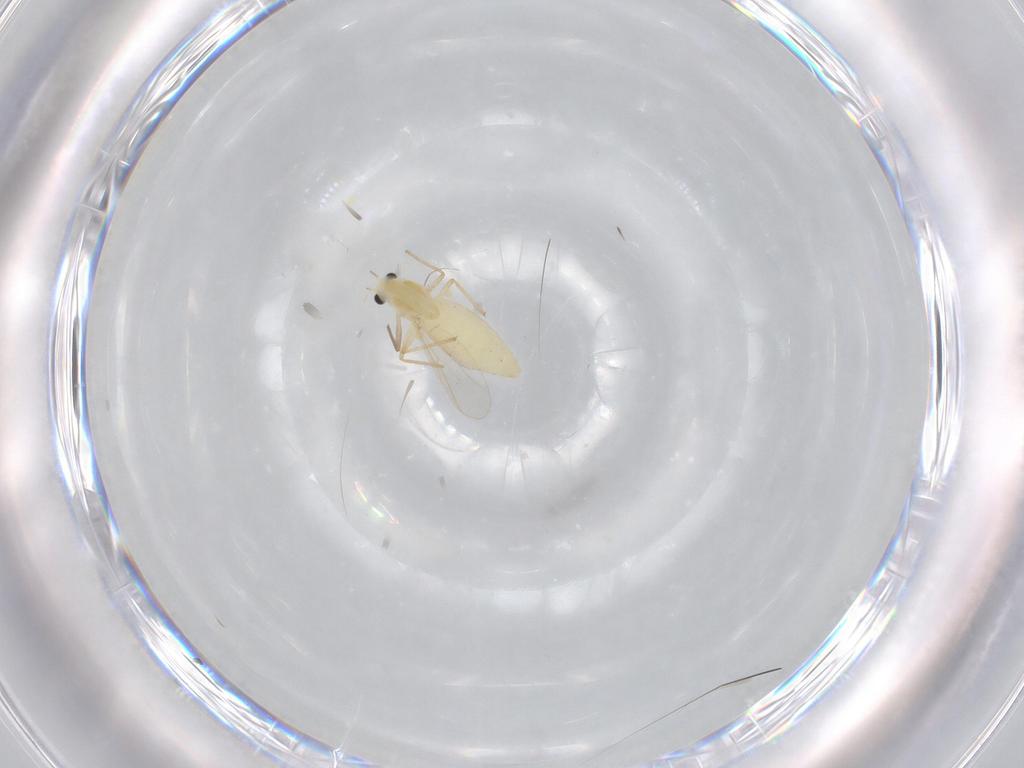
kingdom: Animalia
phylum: Arthropoda
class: Insecta
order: Diptera
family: Chironomidae
